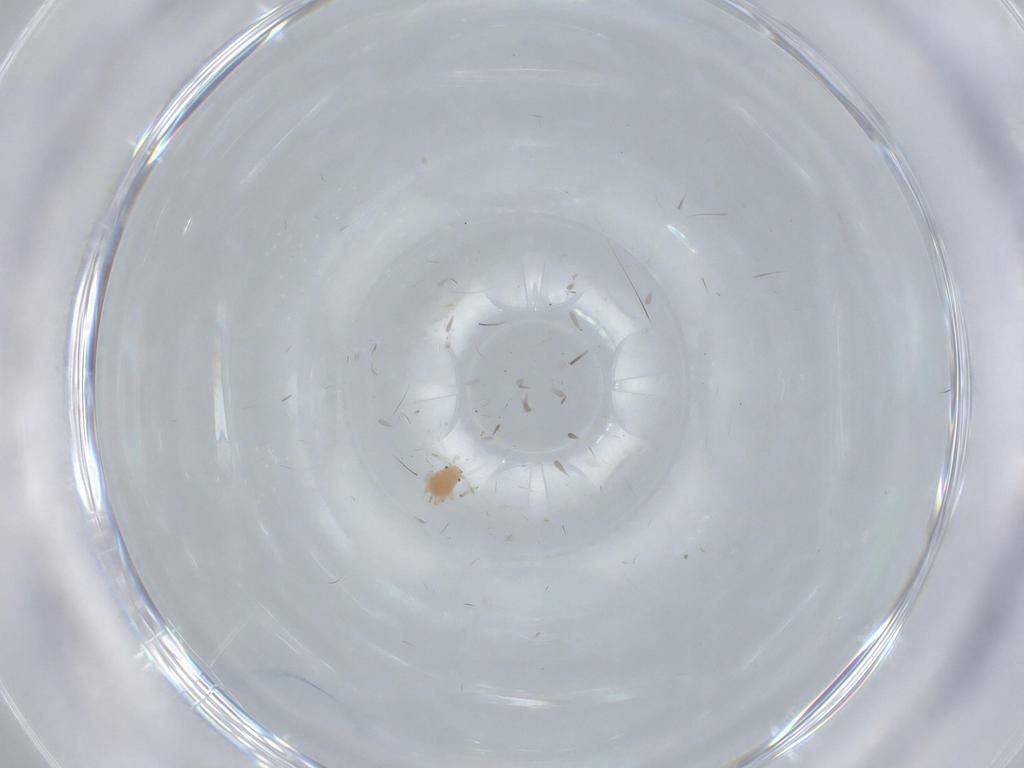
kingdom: Animalia
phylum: Arthropoda
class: Insecta
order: Hemiptera
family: Aphididae
